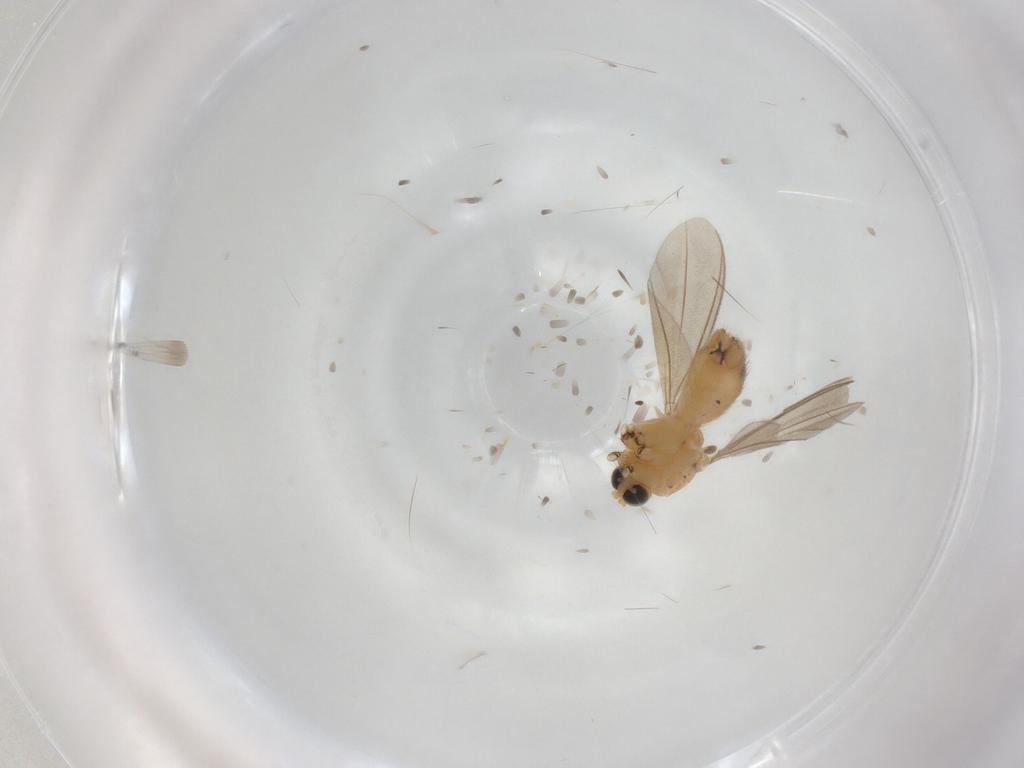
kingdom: Animalia
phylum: Arthropoda
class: Insecta
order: Diptera
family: Mycetophilidae
